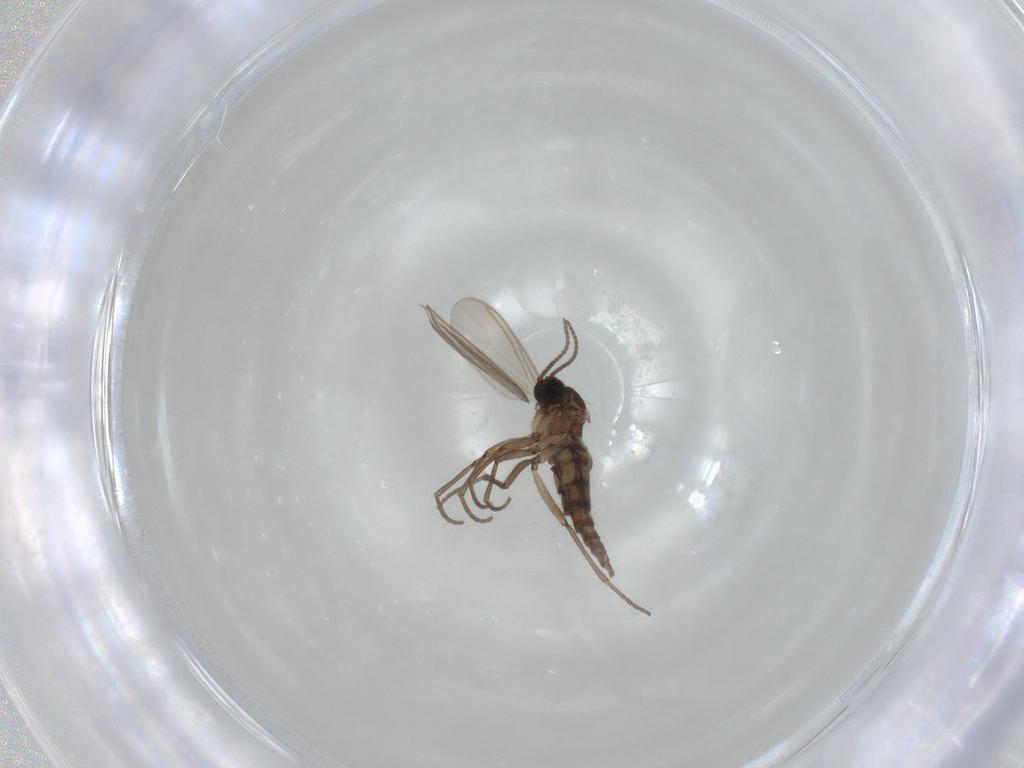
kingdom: Animalia
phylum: Arthropoda
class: Insecta
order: Diptera
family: Sciaridae
